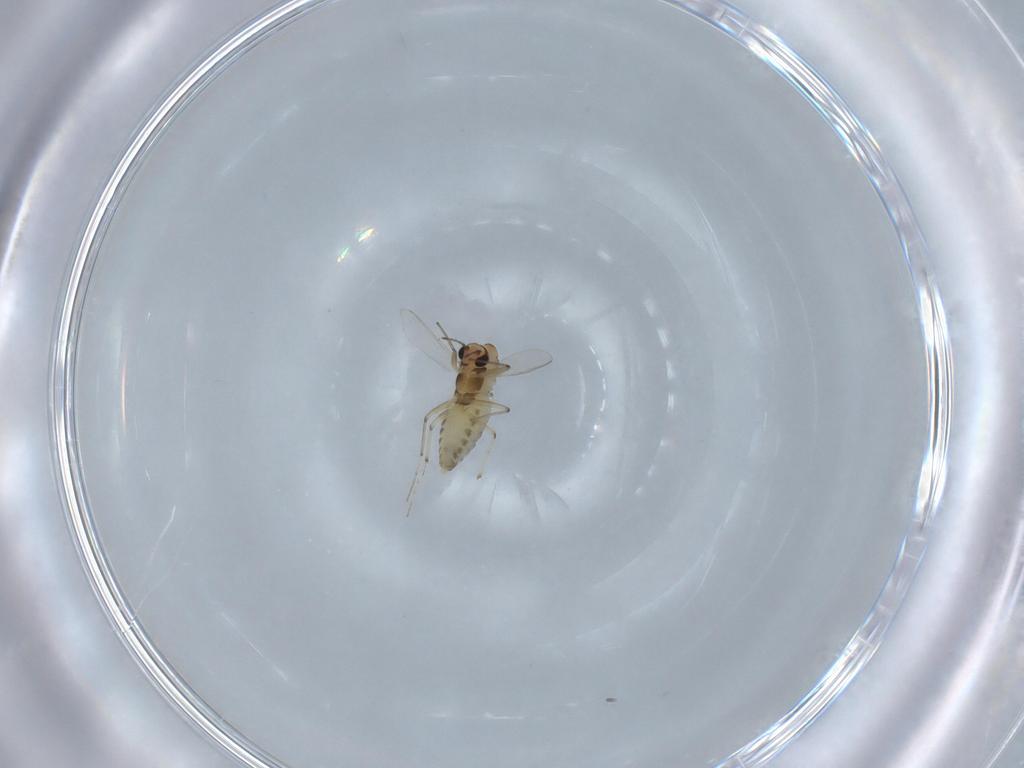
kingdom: Animalia
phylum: Arthropoda
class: Insecta
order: Diptera
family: Chironomidae
